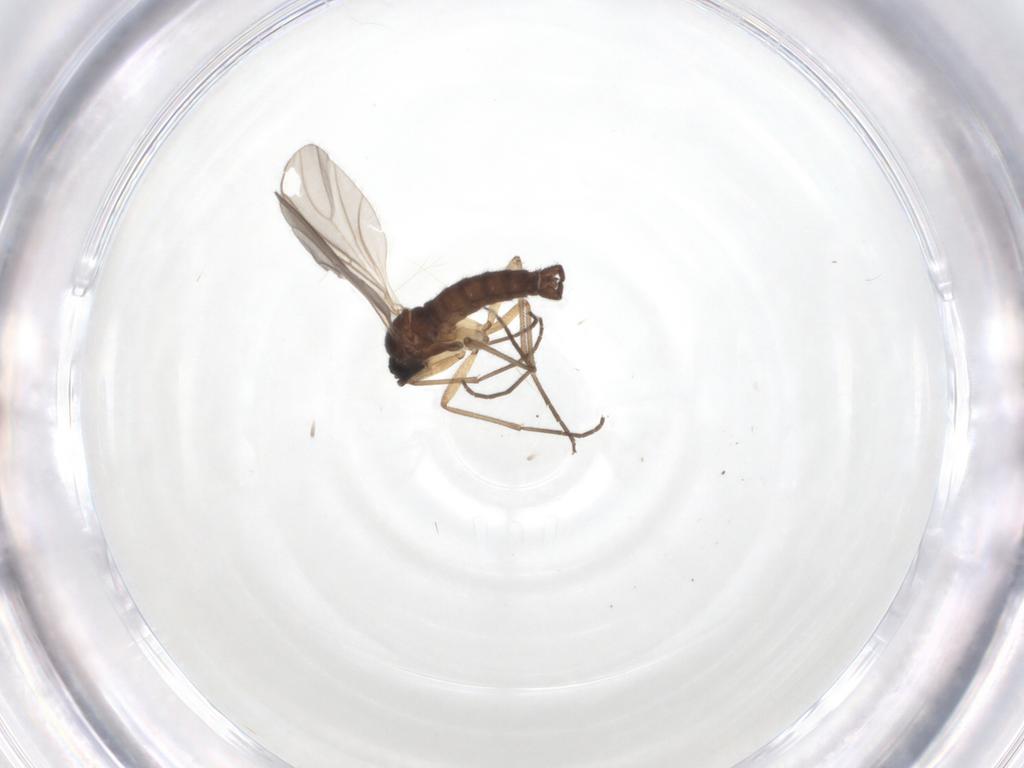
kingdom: Animalia
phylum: Arthropoda
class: Insecta
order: Diptera
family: Sciaridae
